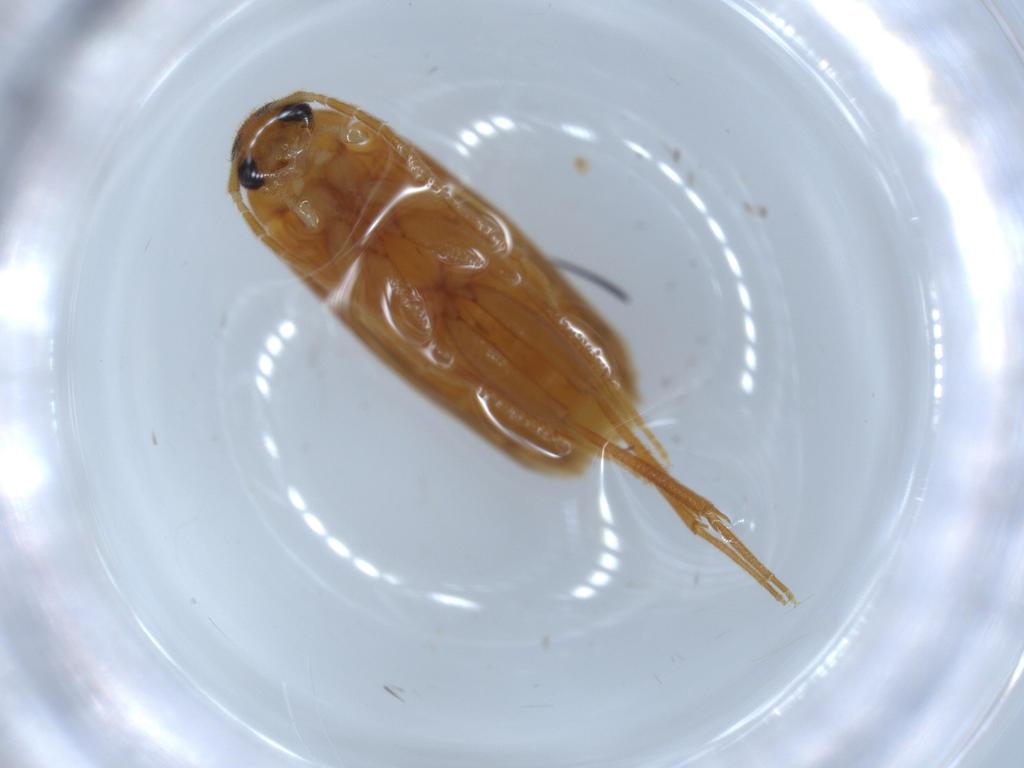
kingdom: Animalia
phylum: Arthropoda
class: Insecta
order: Coleoptera
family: Scraptiidae
